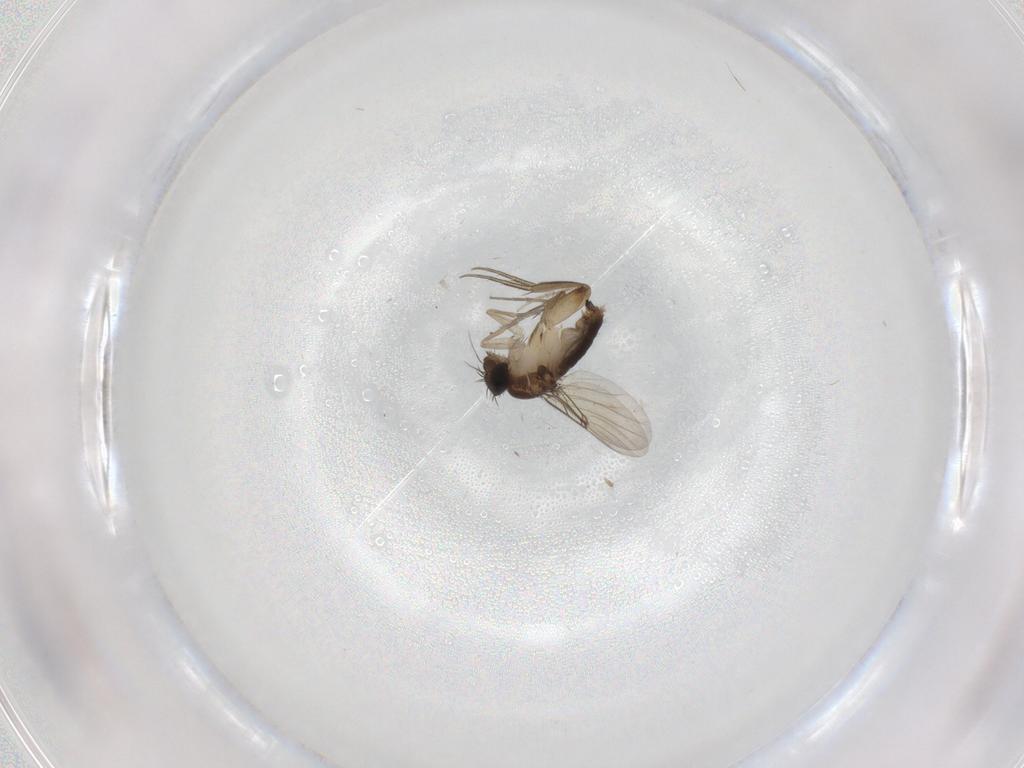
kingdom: Animalia
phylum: Arthropoda
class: Insecta
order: Diptera
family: Phoridae
